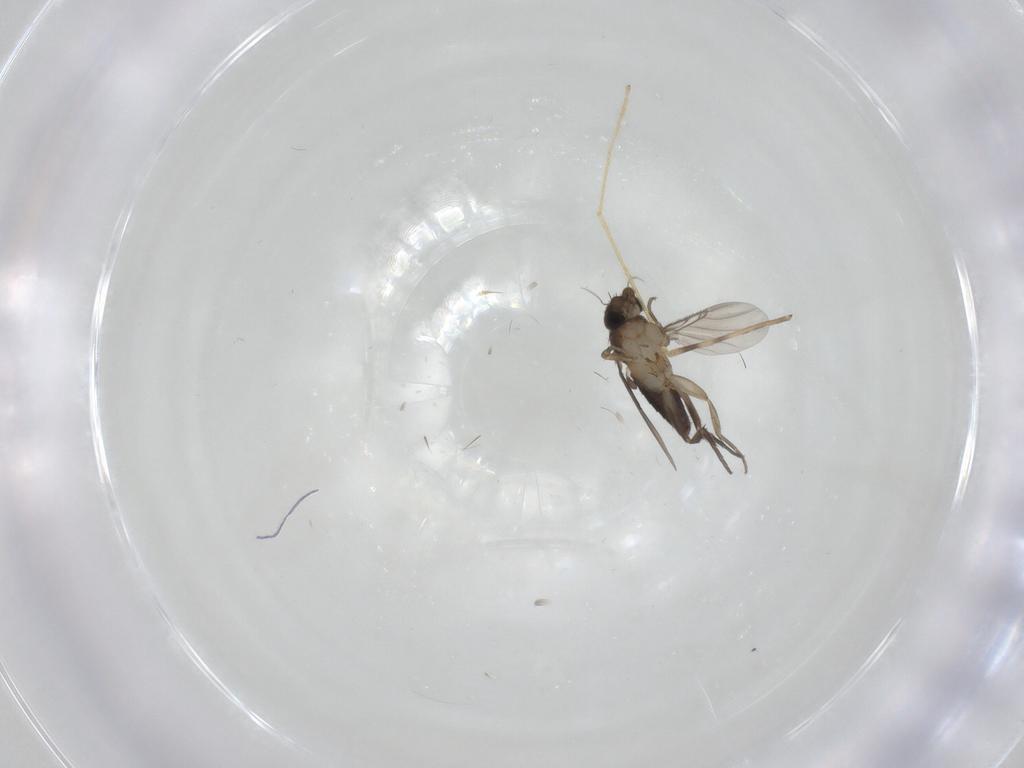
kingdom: Animalia
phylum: Arthropoda
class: Insecta
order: Diptera
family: Phoridae
